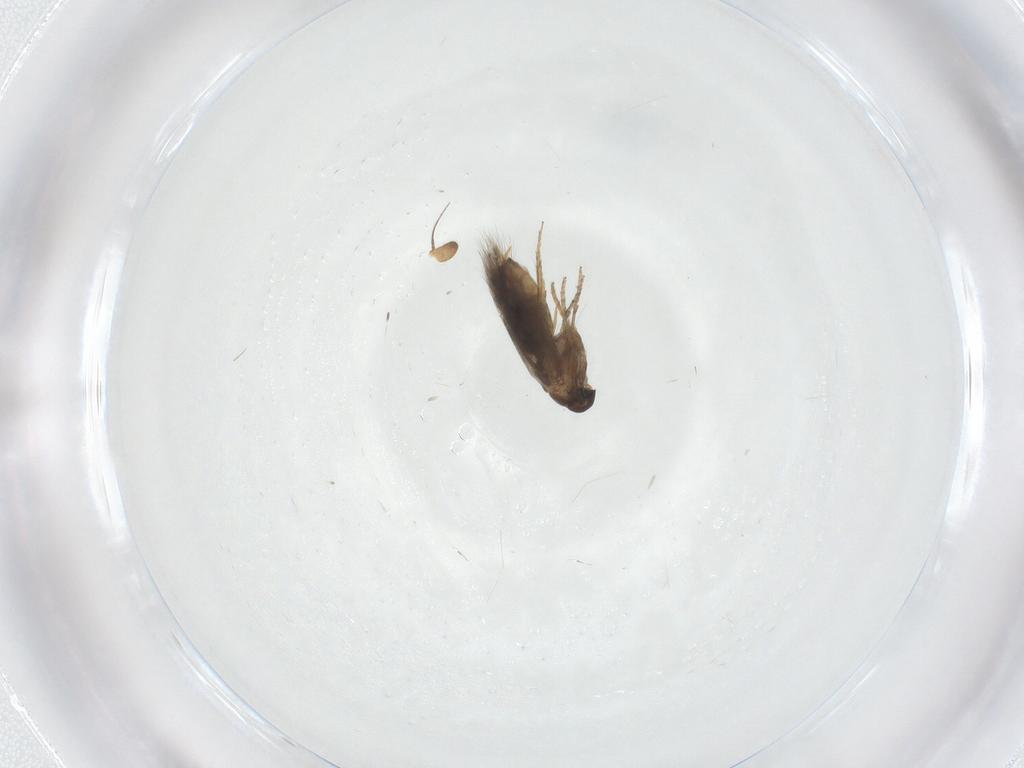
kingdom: Animalia
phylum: Arthropoda
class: Insecta
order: Lepidoptera
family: Heliozelidae
